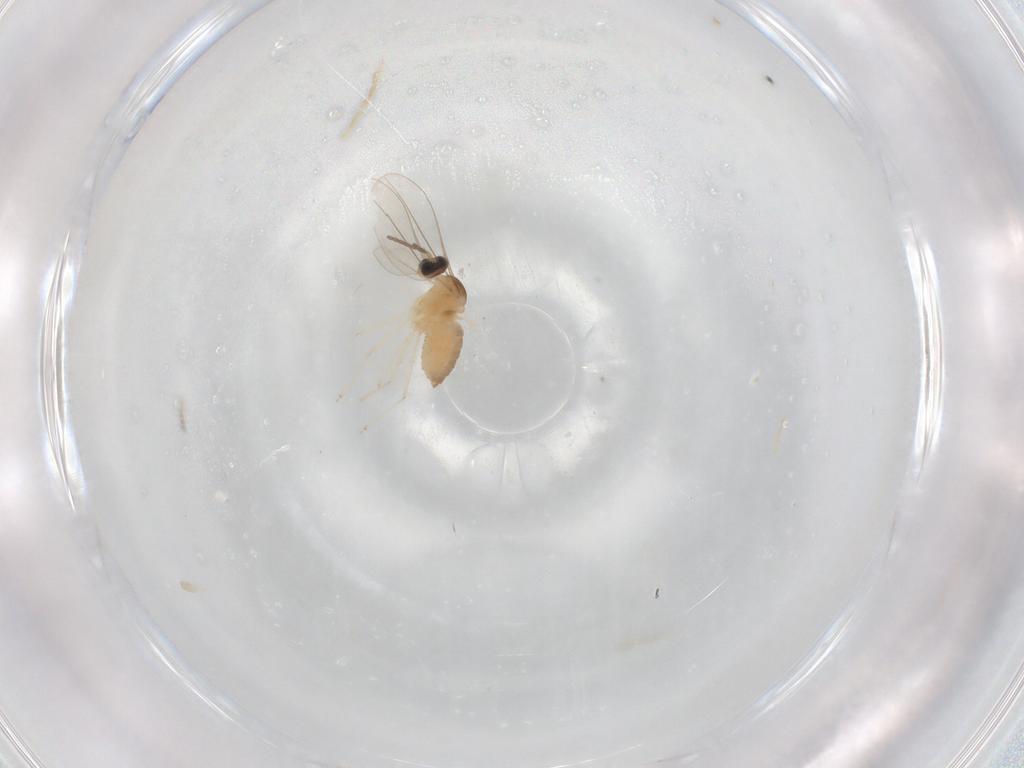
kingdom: Animalia
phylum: Arthropoda
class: Insecta
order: Diptera
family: Cecidomyiidae
